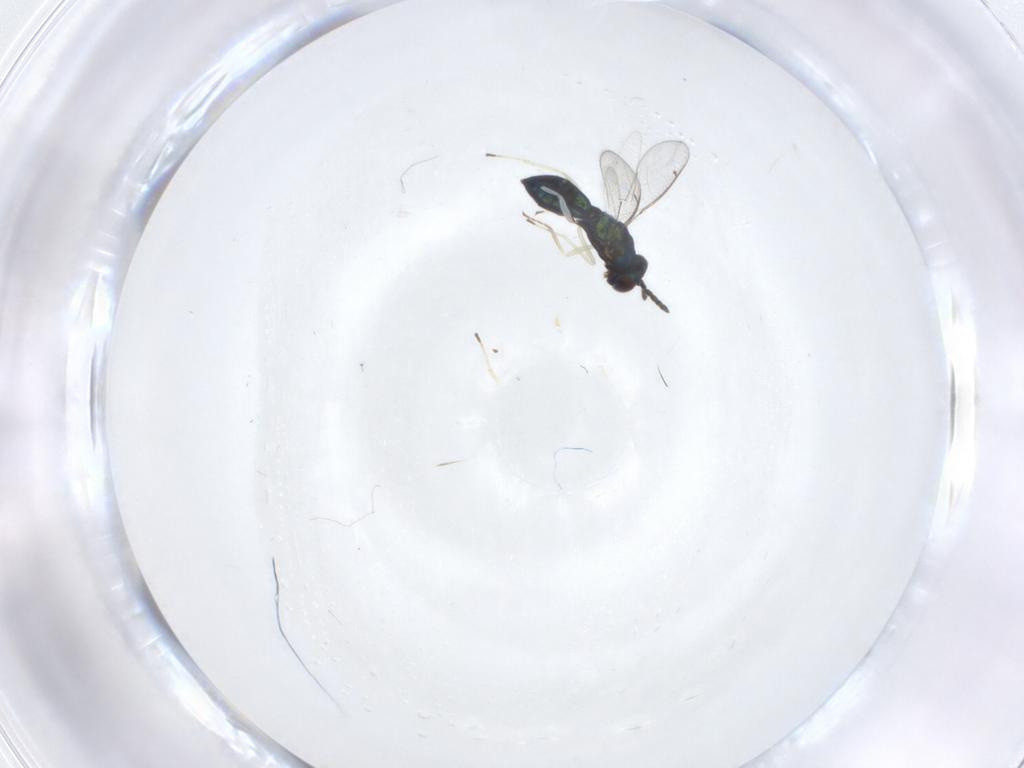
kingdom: Animalia
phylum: Arthropoda
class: Insecta
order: Hymenoptera
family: Eulophidae
